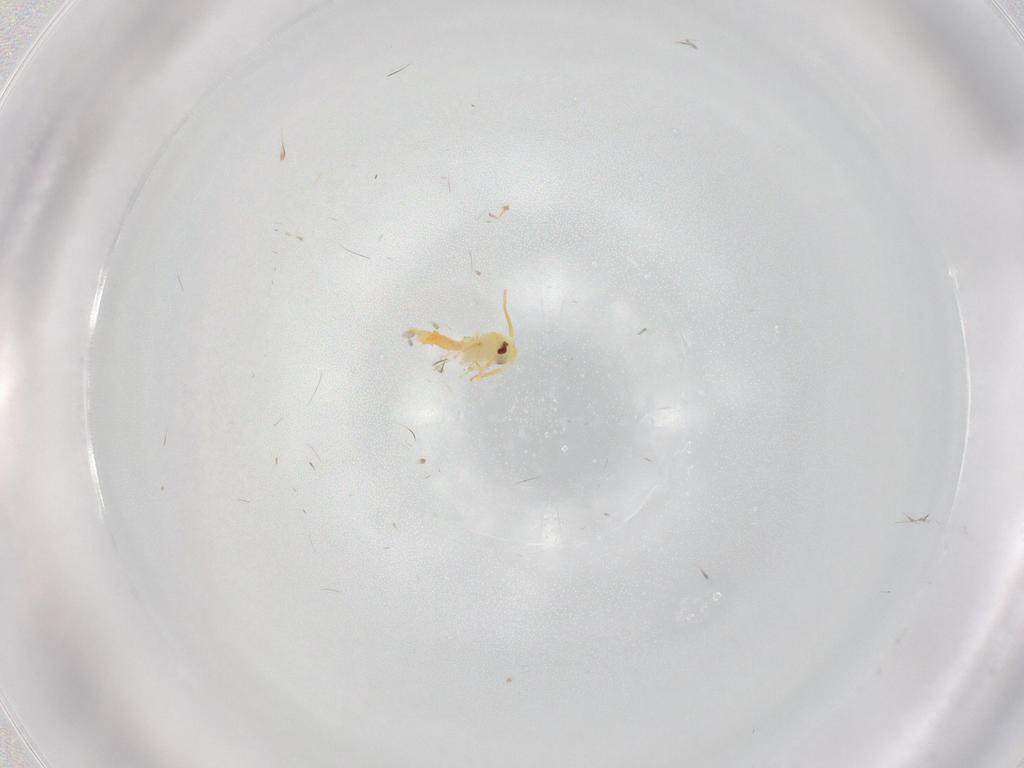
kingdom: Animalia
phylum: Arthropoda
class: Insecta
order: Hemiptera
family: Aleyrodidae
